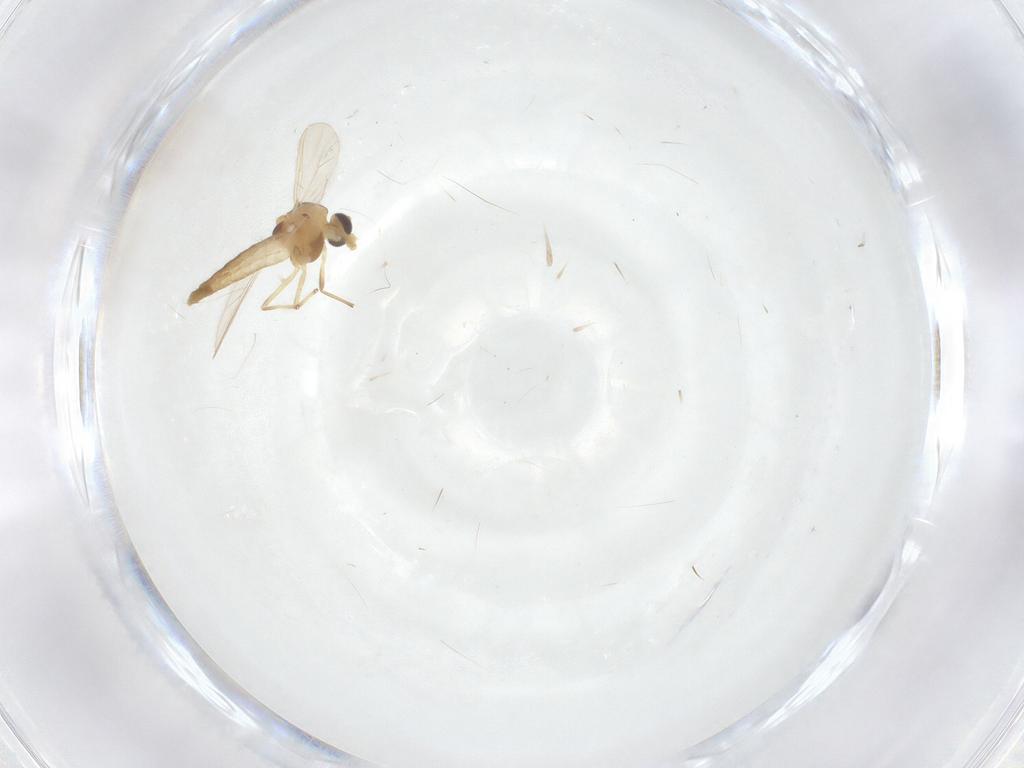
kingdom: Animalia
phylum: Arthropoda
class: Insecta
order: Diptera
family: Chironomidae
